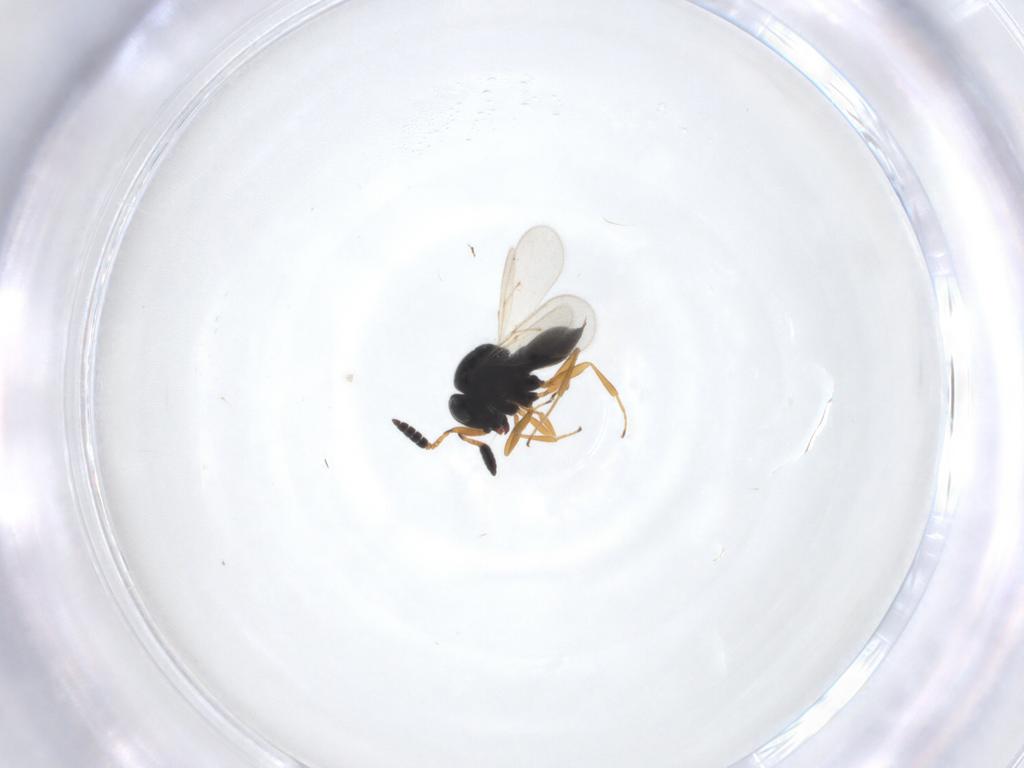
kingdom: Animalia
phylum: Arthropoda
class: Insecta
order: Hymenoptera
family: Scelionidae
